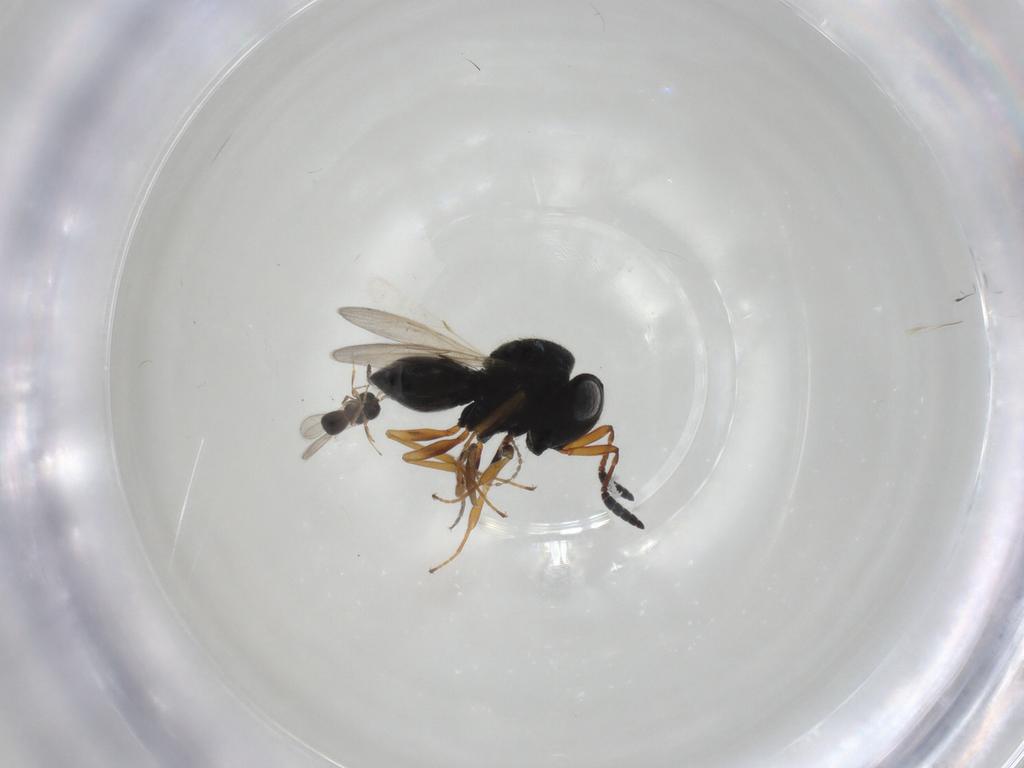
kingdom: Animalia
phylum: Arthropoda
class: Insecta
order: Hymenoptera
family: Scelionidae
